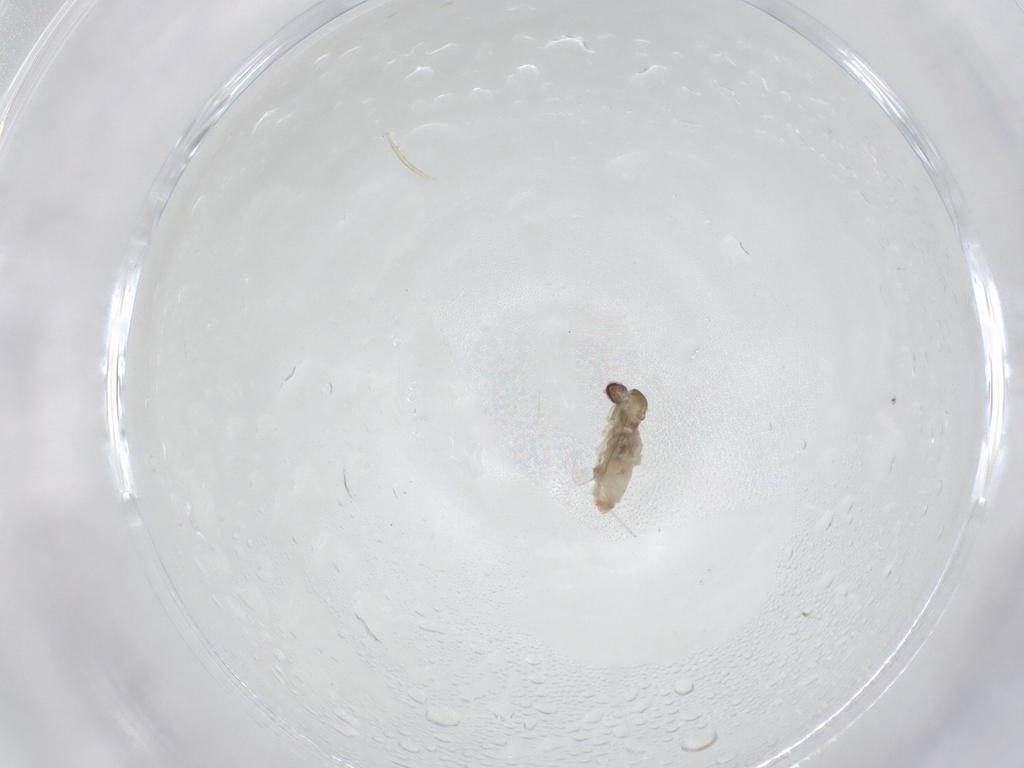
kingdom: Animalia
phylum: Arthropoda
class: Insecta
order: Diptera
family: Cecidomyiidae
